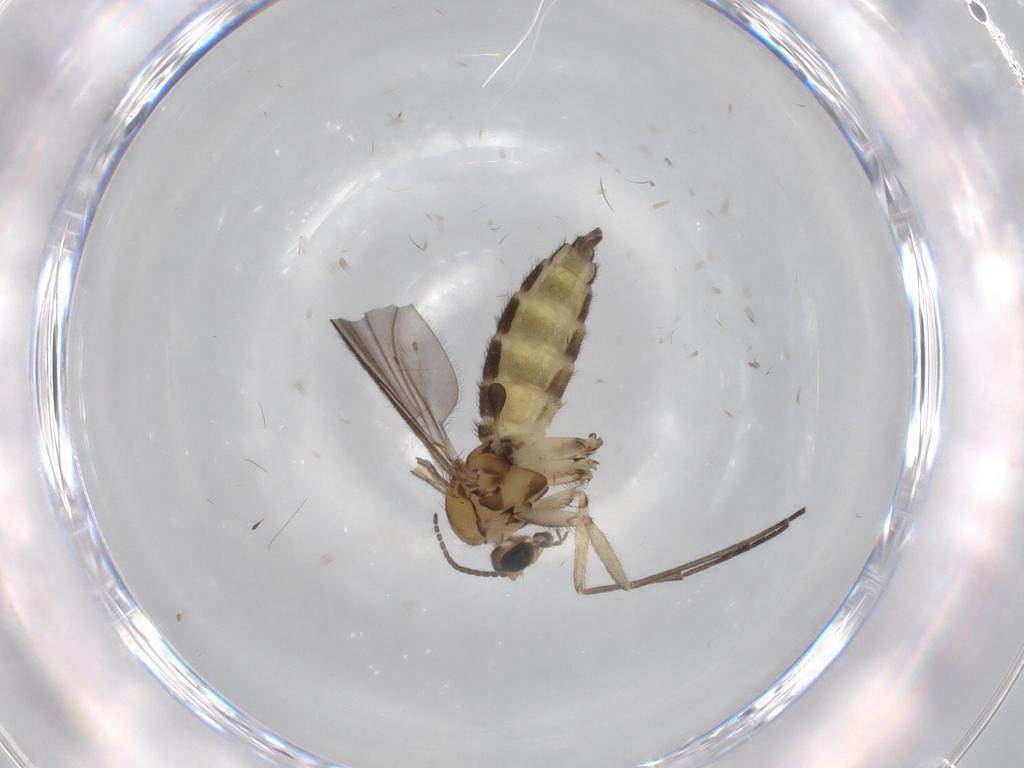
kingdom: Animalia
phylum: Arthropoda
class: Insecta
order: Diptera
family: Sciaridae
